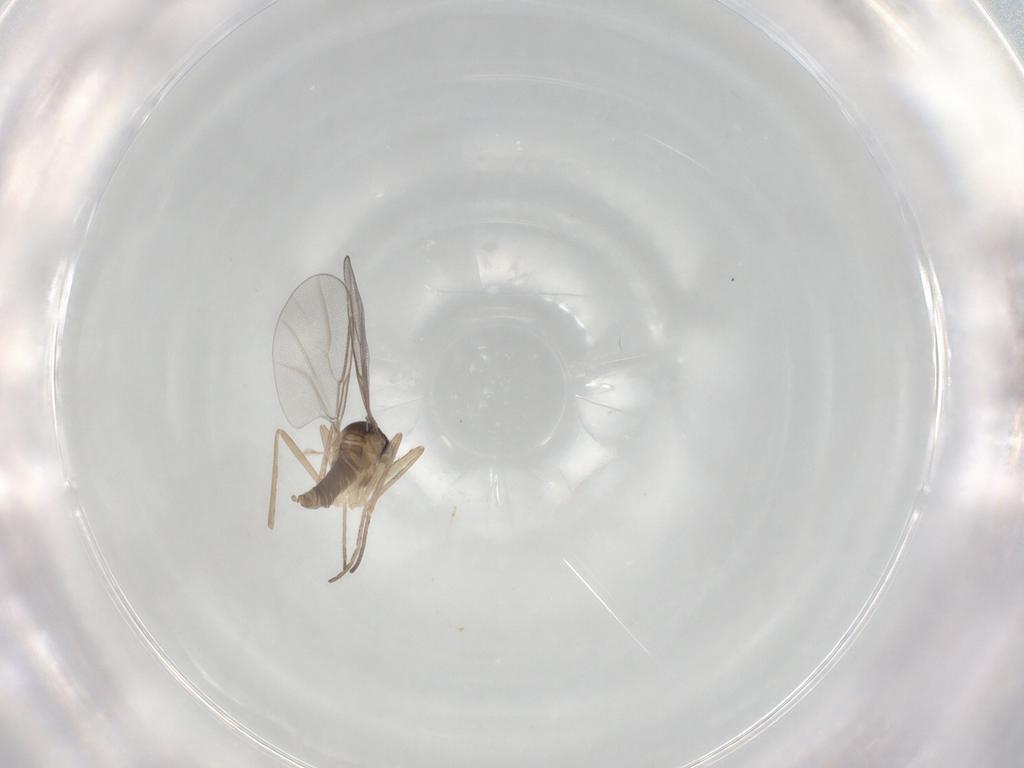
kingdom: Animalia
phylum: Arthropoda
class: Insecta
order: Diptera
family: Cecidomyiidae
